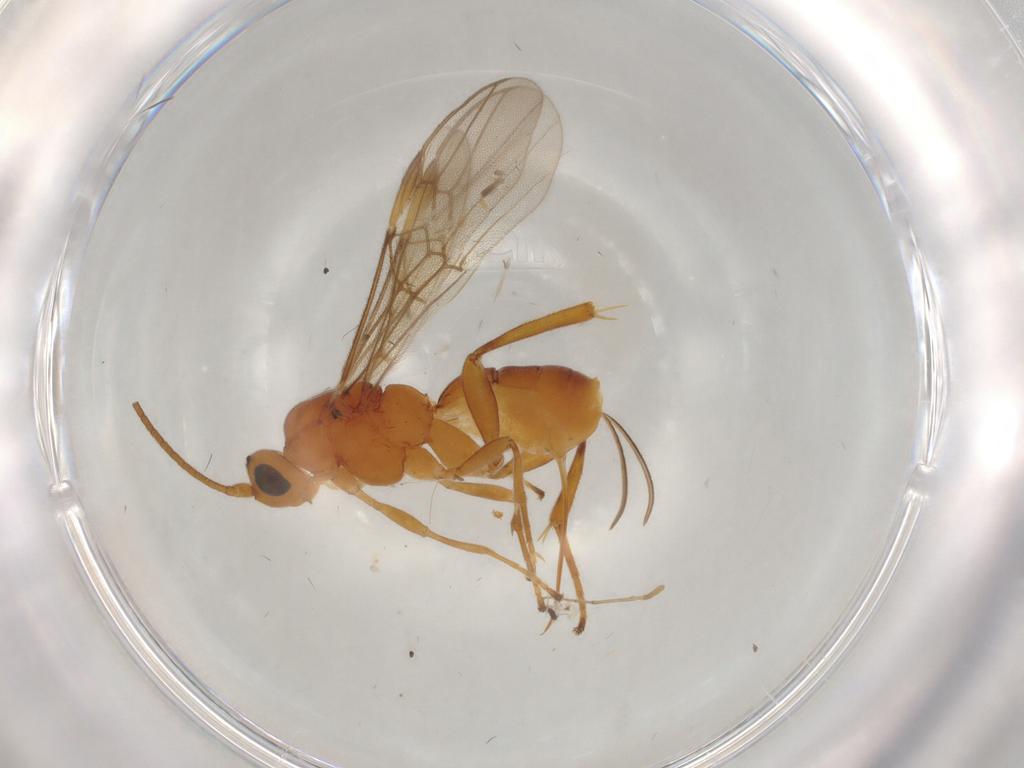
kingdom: Animalia
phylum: Arthropoda
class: Insecta
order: Hymenoptera
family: Braconidae
